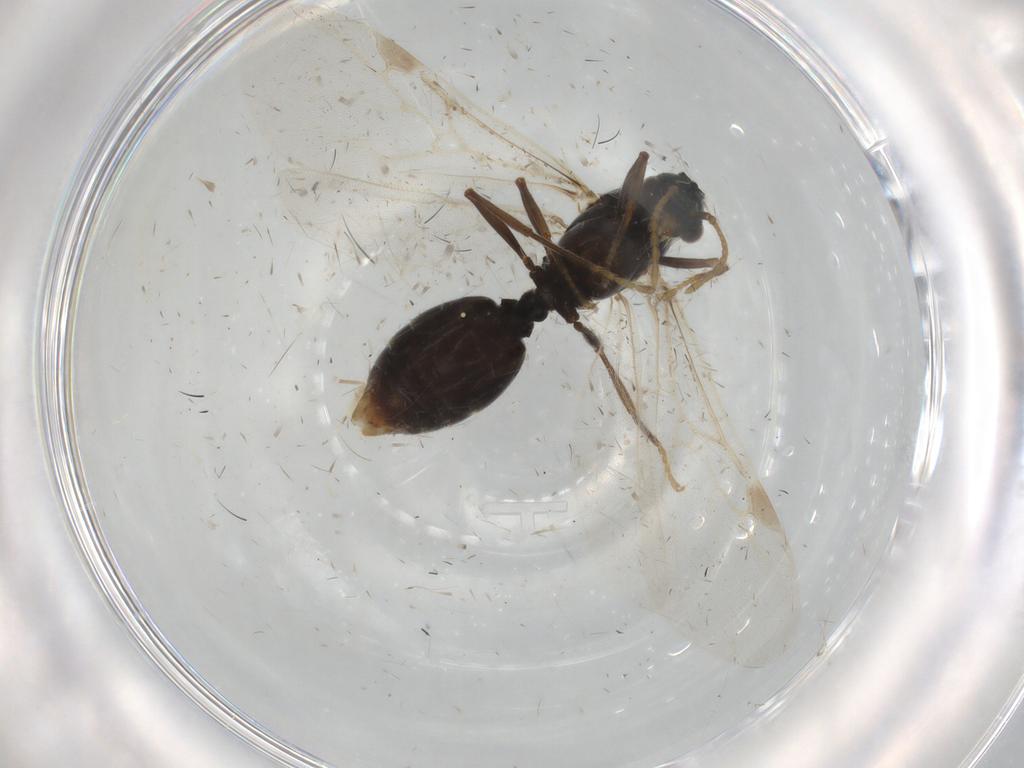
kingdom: Animalia
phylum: Arthropoda
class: Insecta
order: Hymenoptera
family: Formicidae
